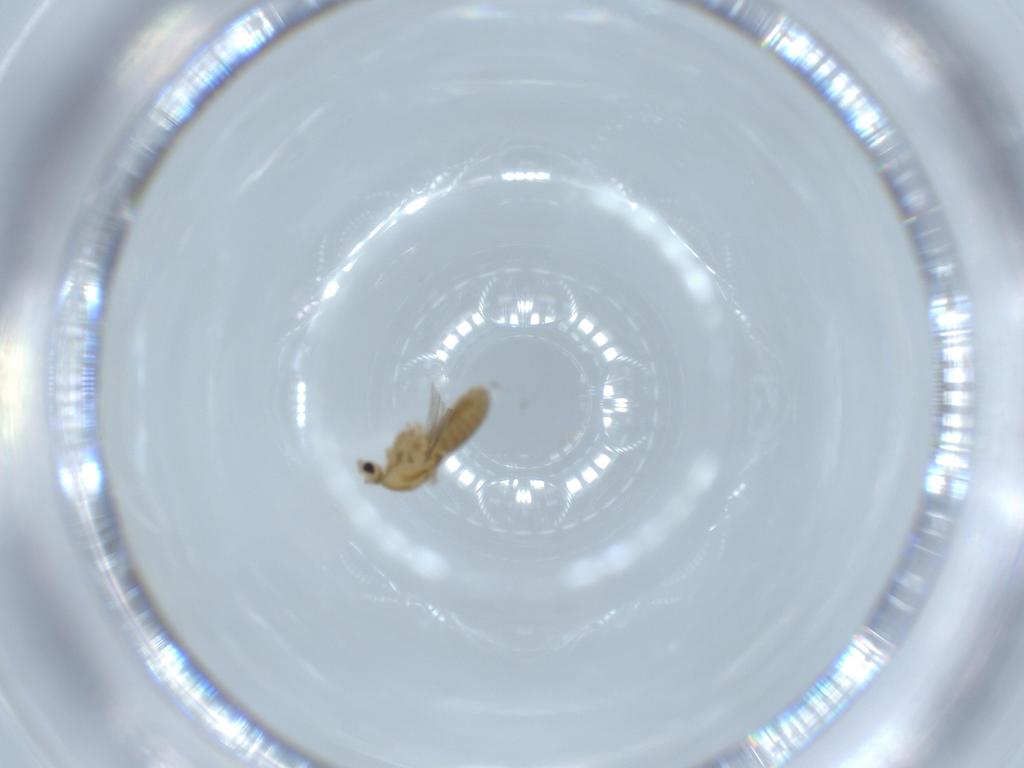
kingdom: Animalia
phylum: Arthropoda
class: Insecta
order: Diptera
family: Chironomidae
